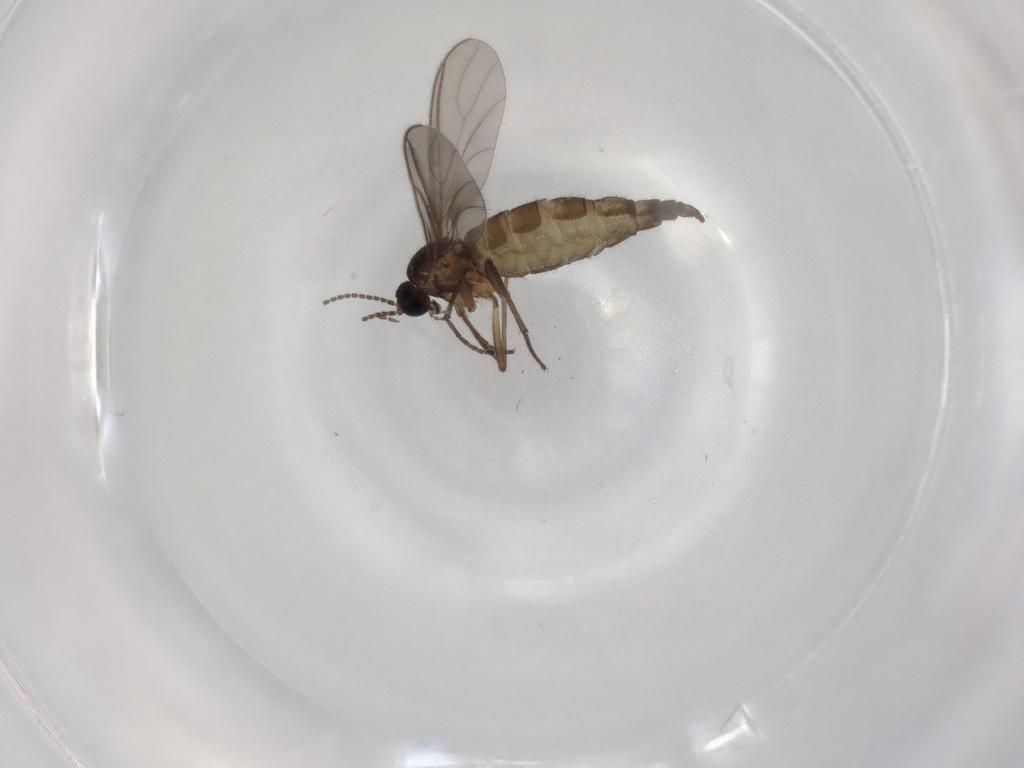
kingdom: Animalia
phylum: Arthropoda
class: Insecta
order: Diptera
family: Sciaridae
